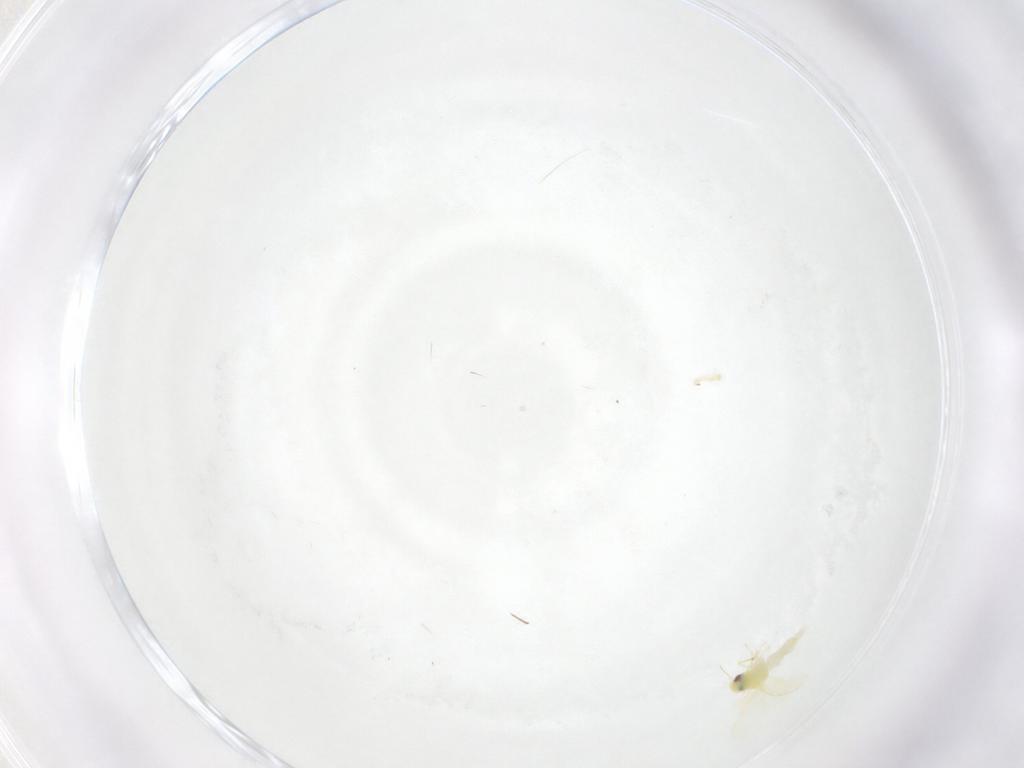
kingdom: Animalia
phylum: Arthropoda
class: Insecta
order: Hemiptera
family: Aleyrodidae
